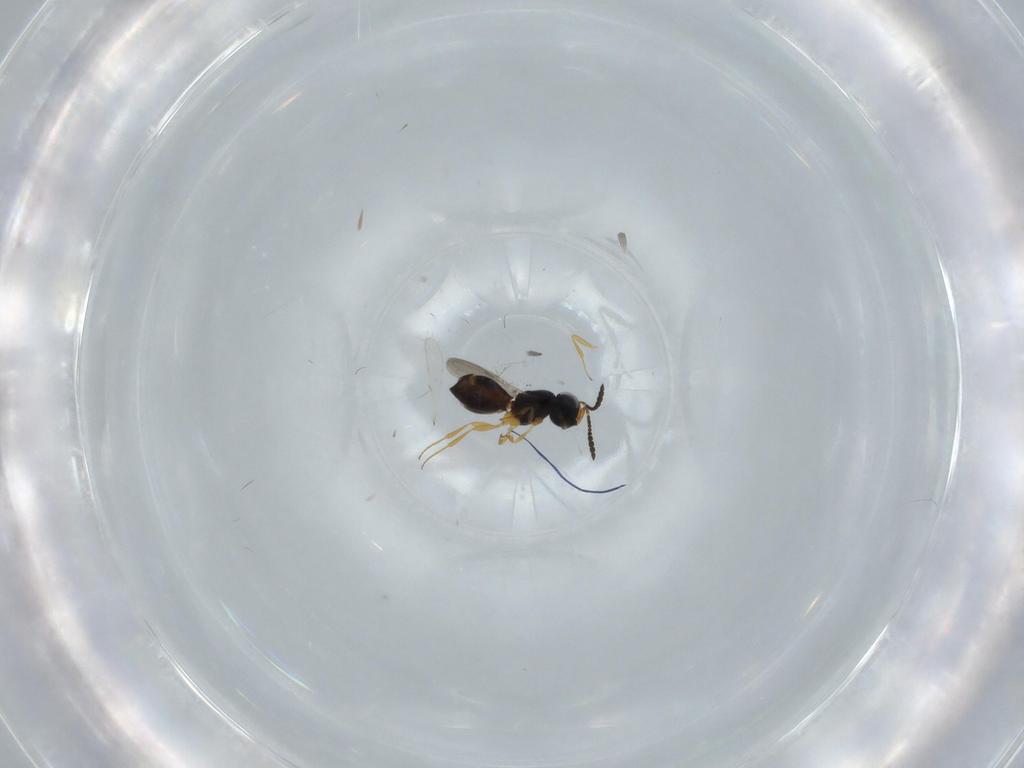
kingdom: Animalia
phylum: Arthropoda
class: Insecta
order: Hymenoptera
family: Scelionidae
